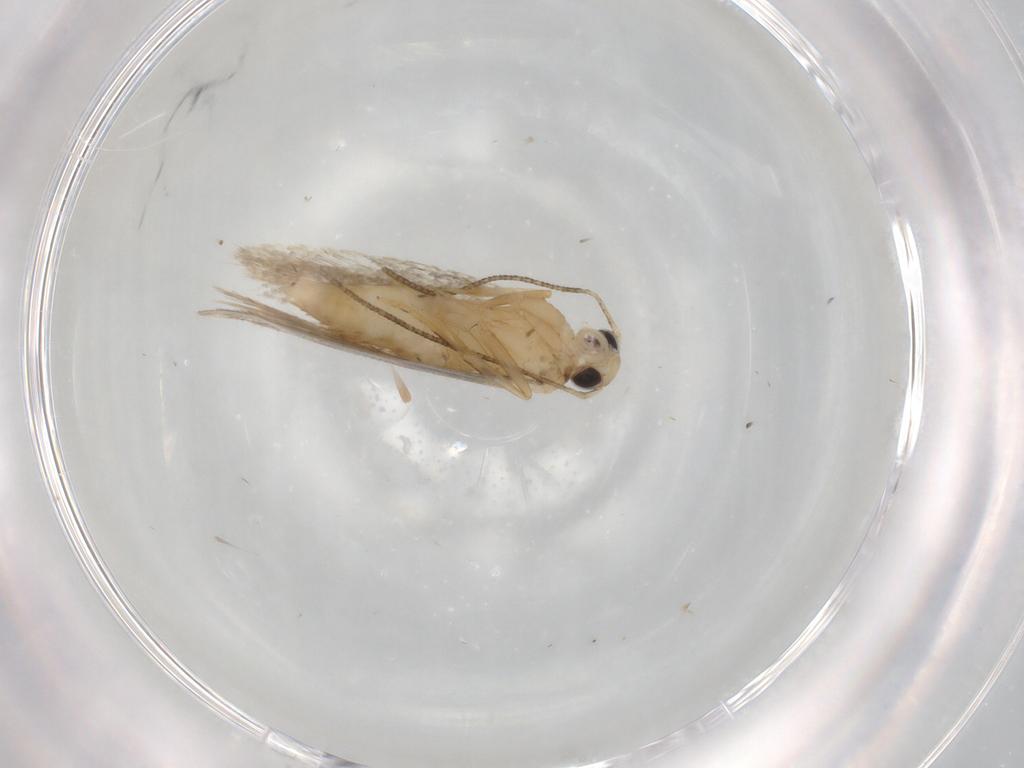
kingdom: Animalia
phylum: Arthropoda
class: Insecta
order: Lepidoptera
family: Autostichidae
